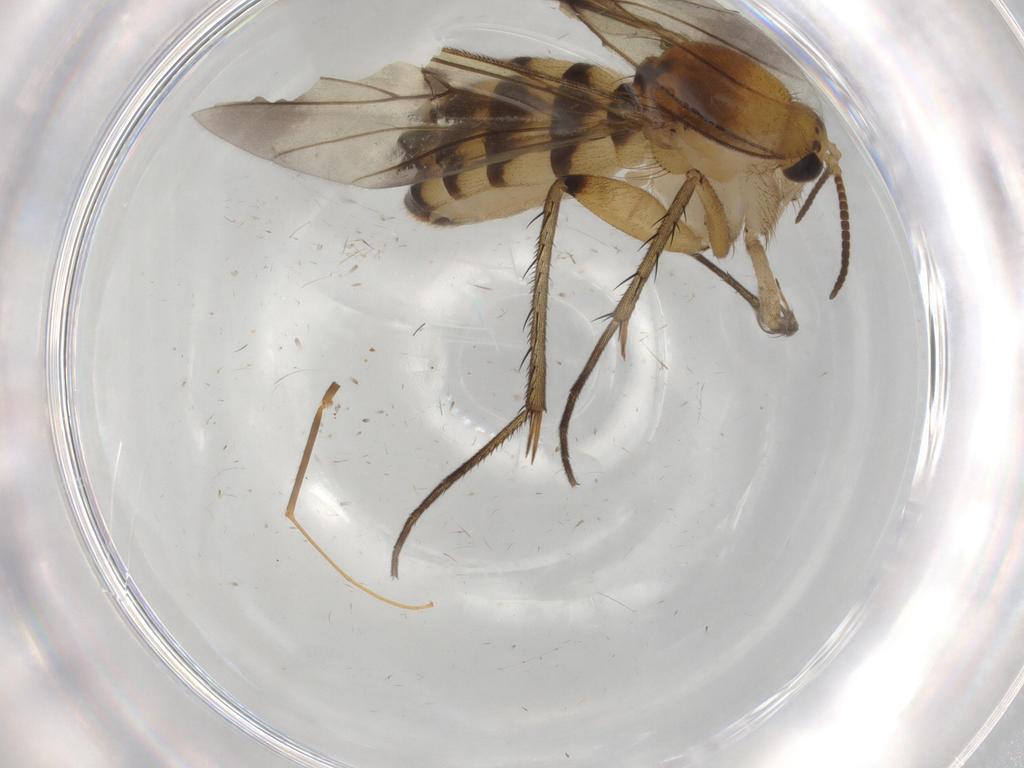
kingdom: Animalia
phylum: Arthropoda
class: Insecta
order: Diptera
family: Mycetophilidae
